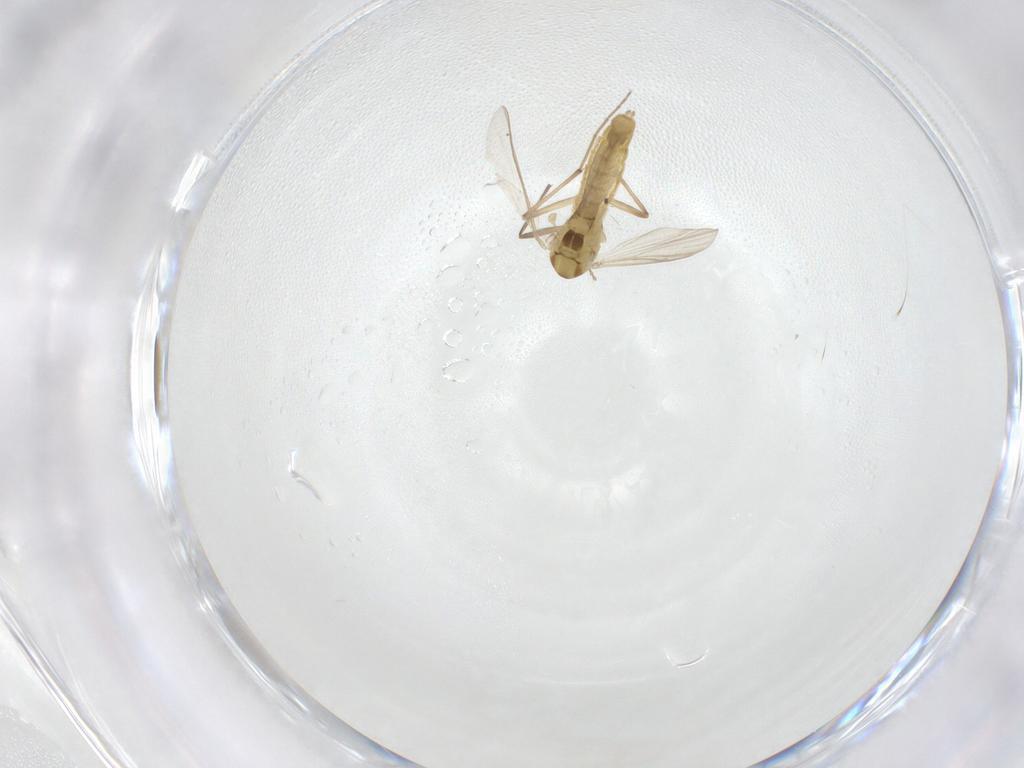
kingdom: Animalia
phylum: Arthropoda
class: Insecta
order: Diptera
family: Sciaridae
